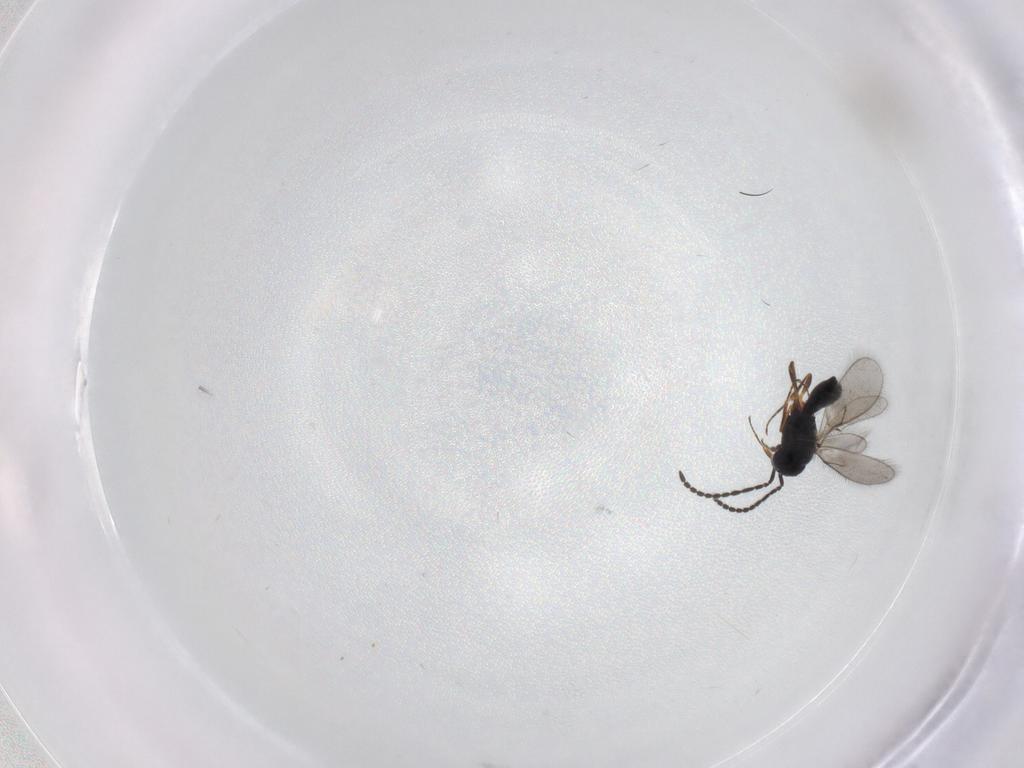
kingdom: Animalia
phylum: Arthropoda
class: Insecta
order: Hymenoptera
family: Scelionidae
